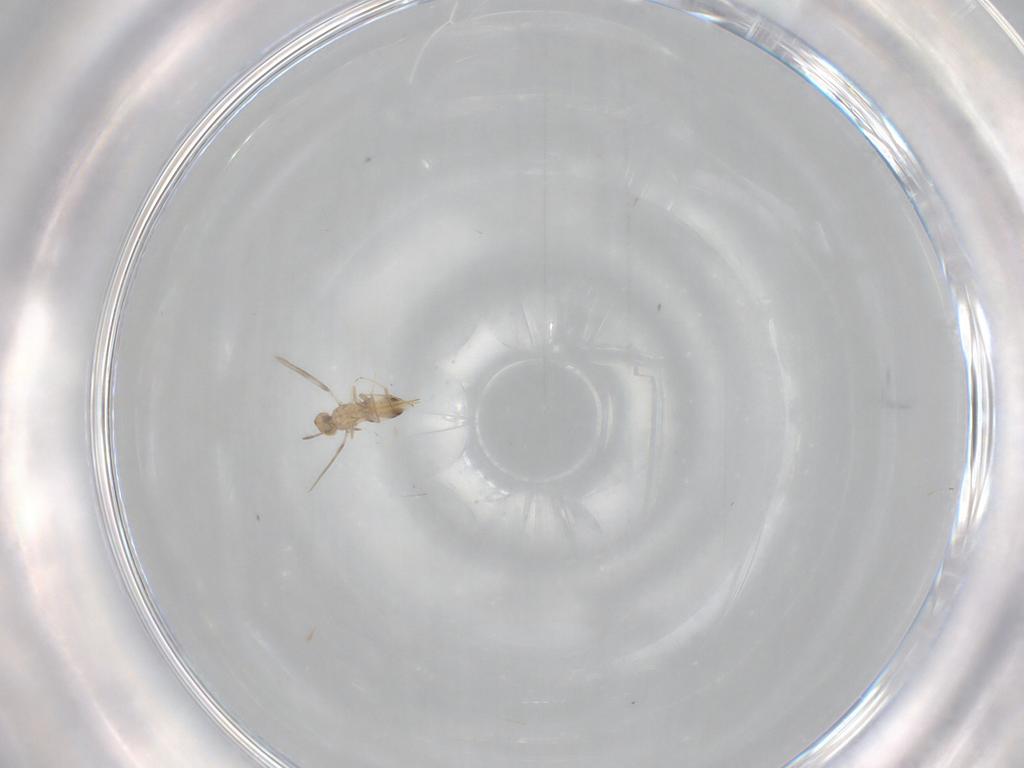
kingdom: Animalia
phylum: Arthropoda
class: Insecta
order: Hymenoptera
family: Aphelinidae
